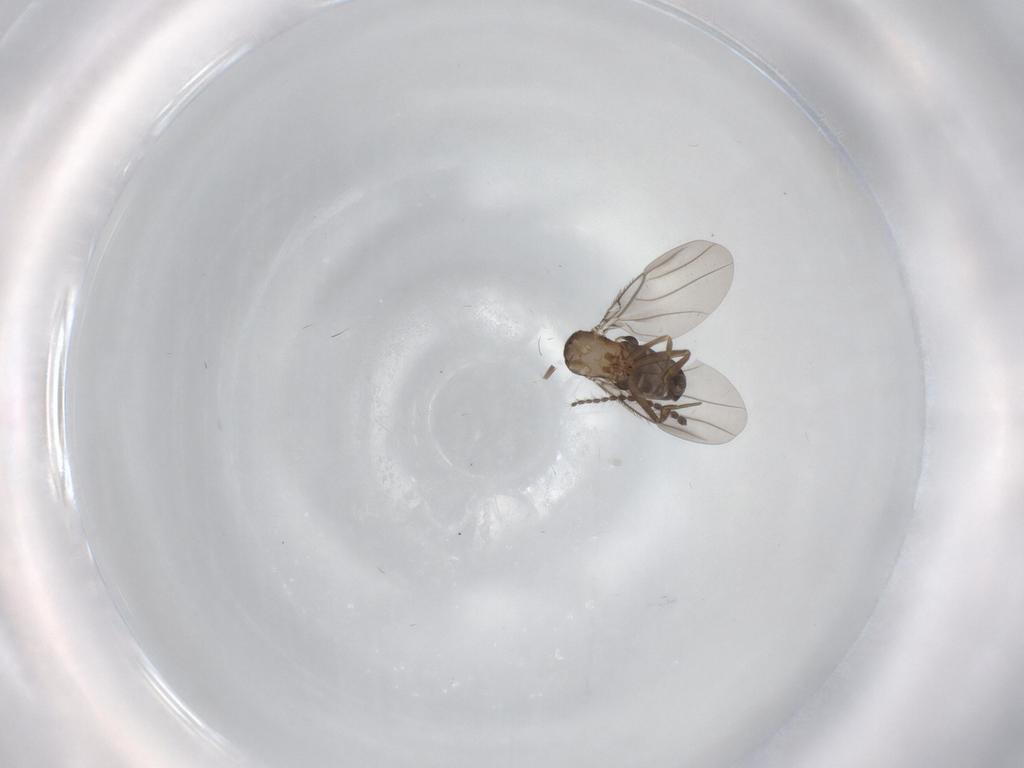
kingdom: Animalia
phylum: Arthropoda
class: Insecta
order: Diptera
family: Phoridae
